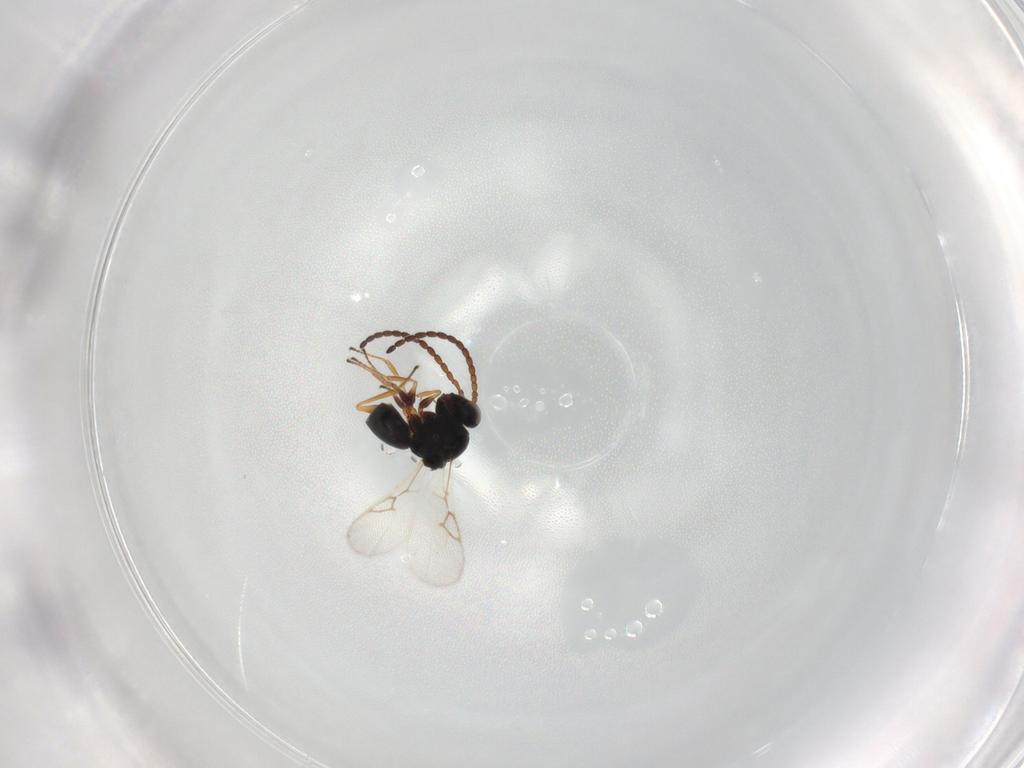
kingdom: Animalia
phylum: Arthropoda
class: Insecta
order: Hymenoptera
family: Figitidae
